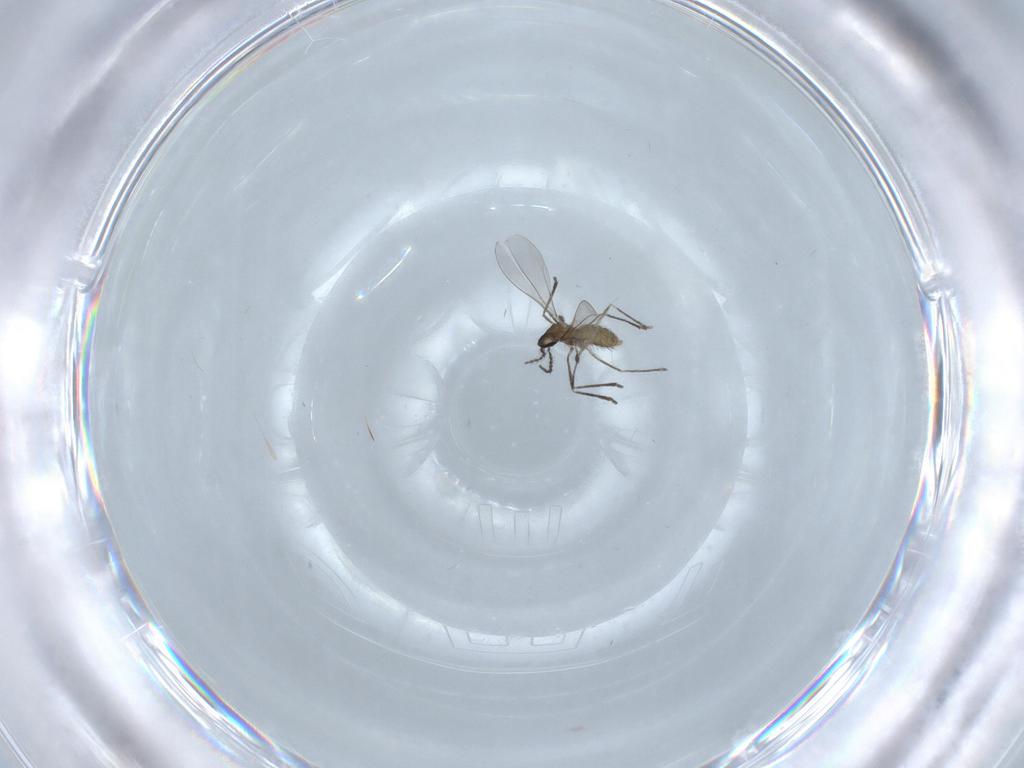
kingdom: Animalia
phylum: Arthropoda
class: Insecta
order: Diptera
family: Cecidomyiidae
